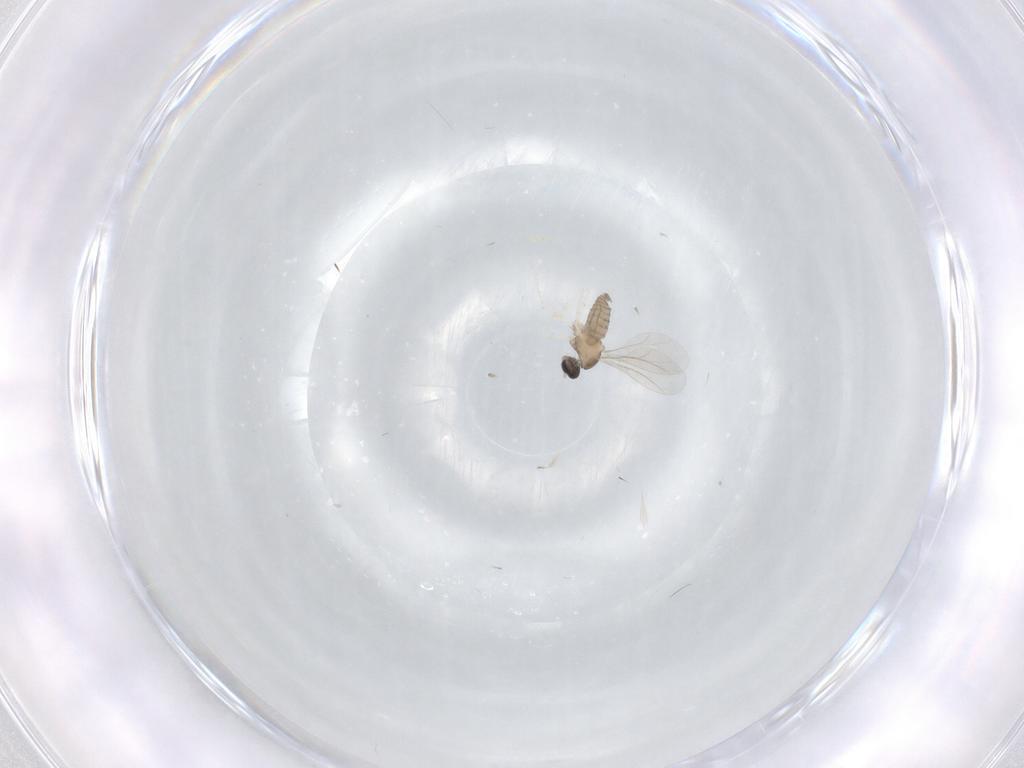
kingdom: Animalia
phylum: Arthropoda
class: Insecta
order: Diptera
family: Cecidomyiidae
